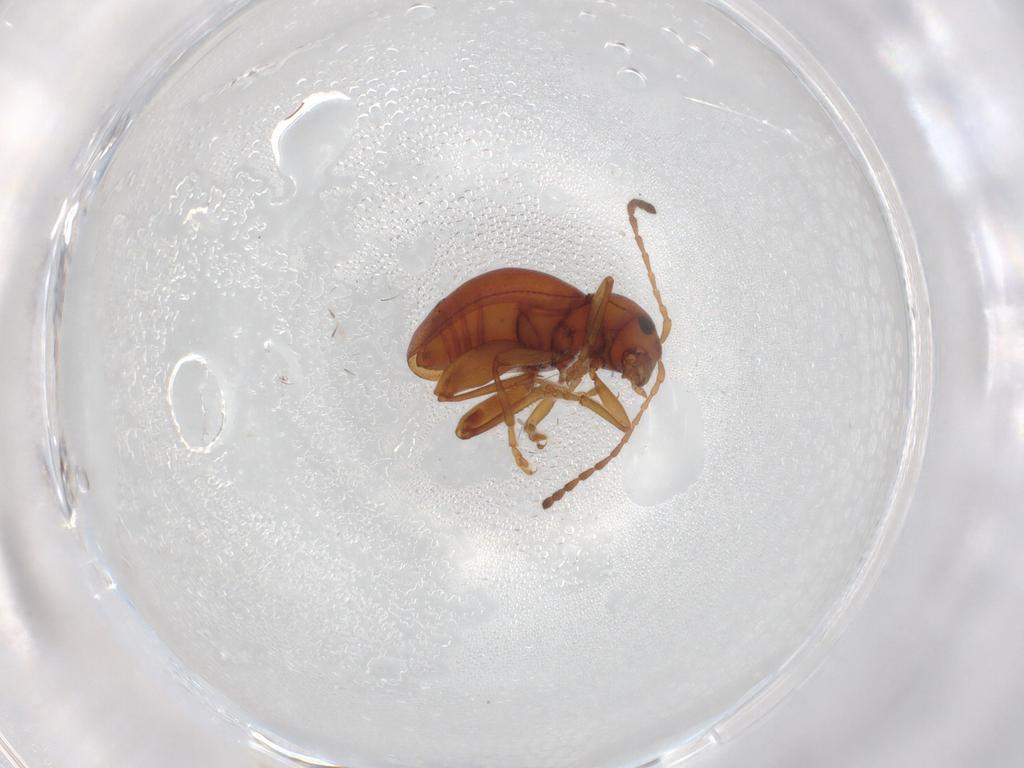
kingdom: Animalia
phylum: Arthropoda
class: Insecta
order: Coleoptera
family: Chrysomelidae
